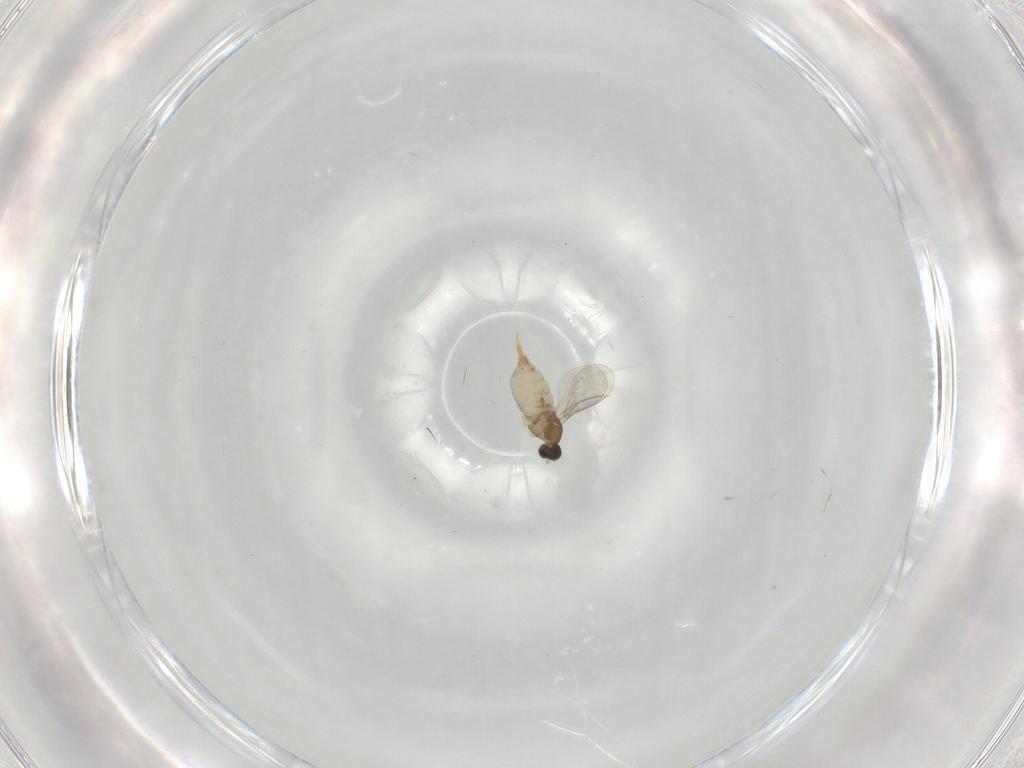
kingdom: Animalia
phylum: Arthropoda
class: Insecta
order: Diptera
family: Cecidomyiidae
